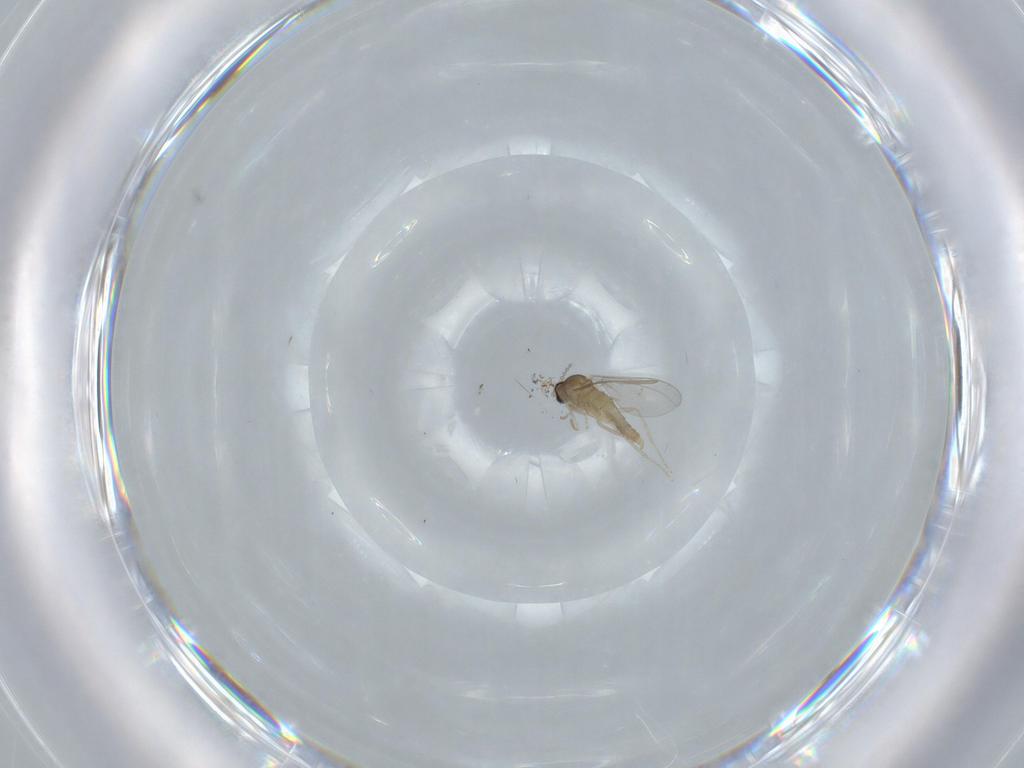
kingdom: Animalia
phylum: Arthropoda
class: Insecta
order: Diptera
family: Cecidomyiidae
